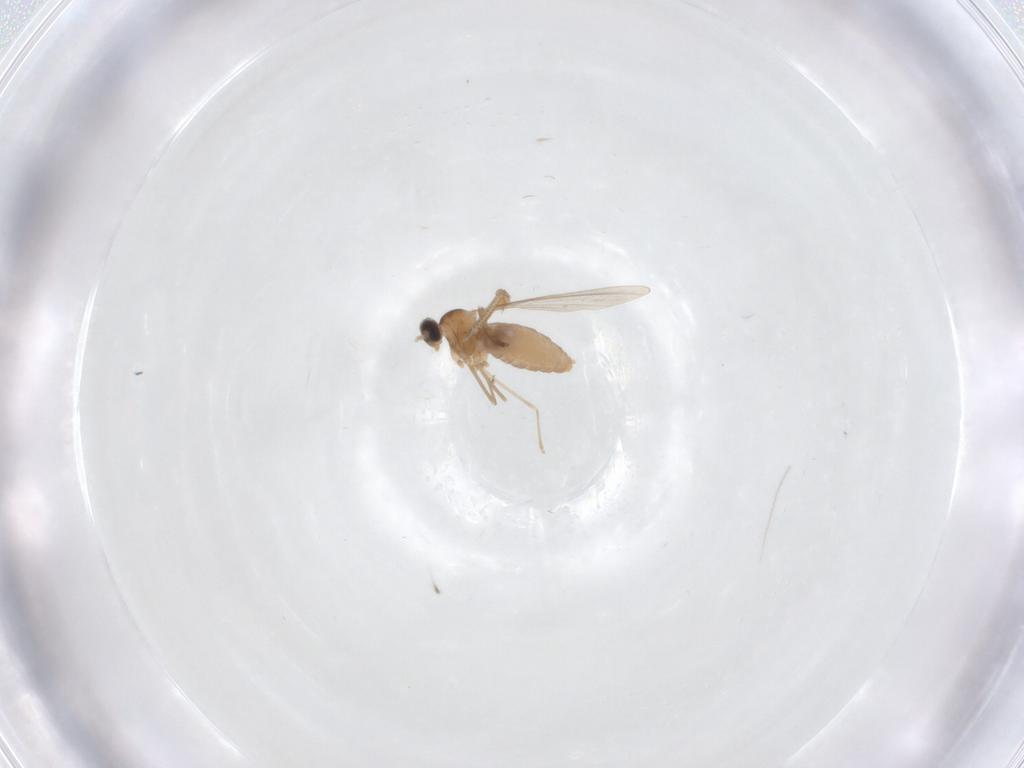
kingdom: Animalia
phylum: Arthropoda
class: Insecta
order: Diptera
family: Cecidomyiidae
